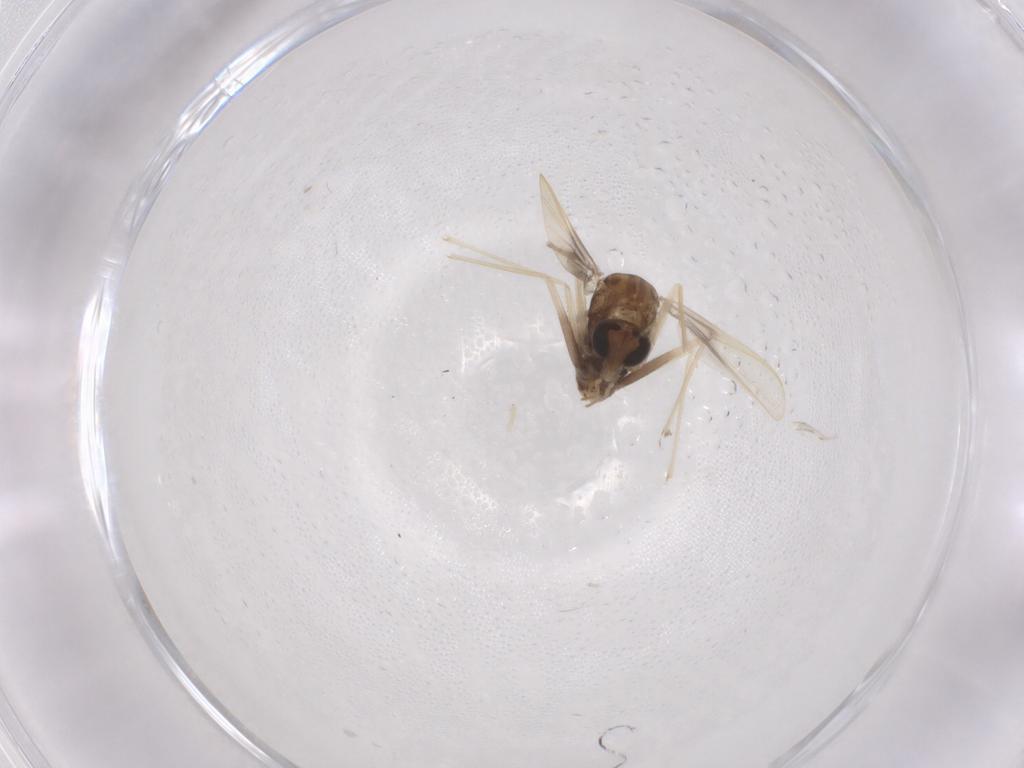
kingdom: Animalia
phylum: Arthropoda
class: Insecta
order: Diptera
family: Chironomidae
